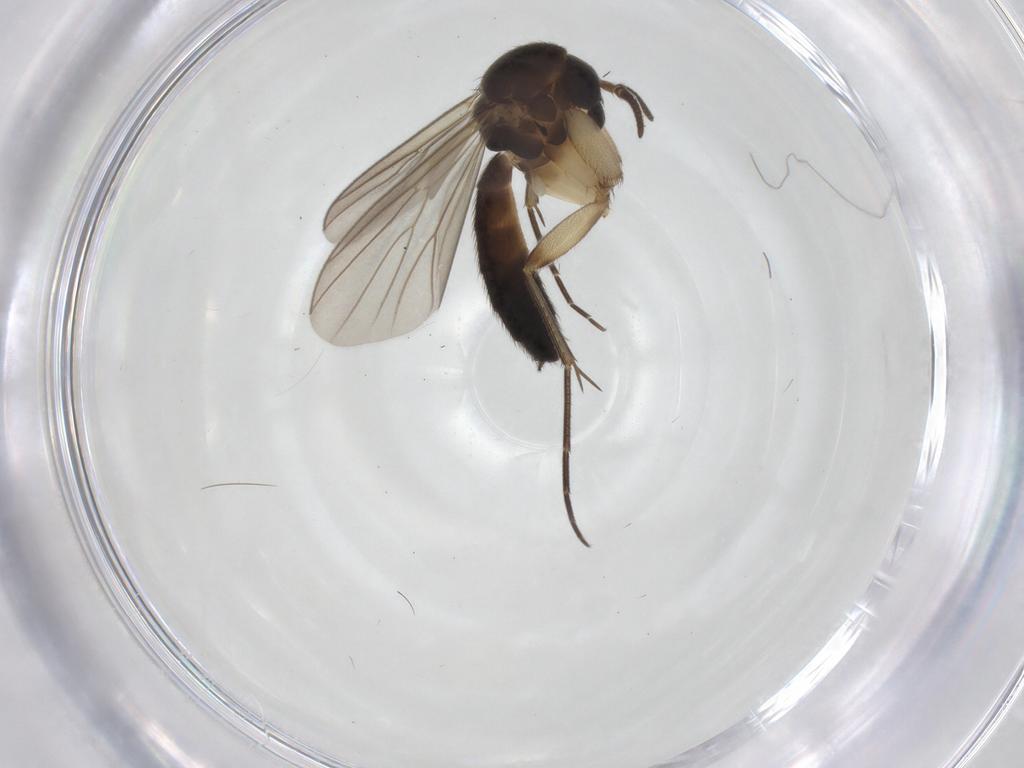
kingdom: Animalia
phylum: Arthropoda
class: Insecta
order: Diptera
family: Mycetophilidae
